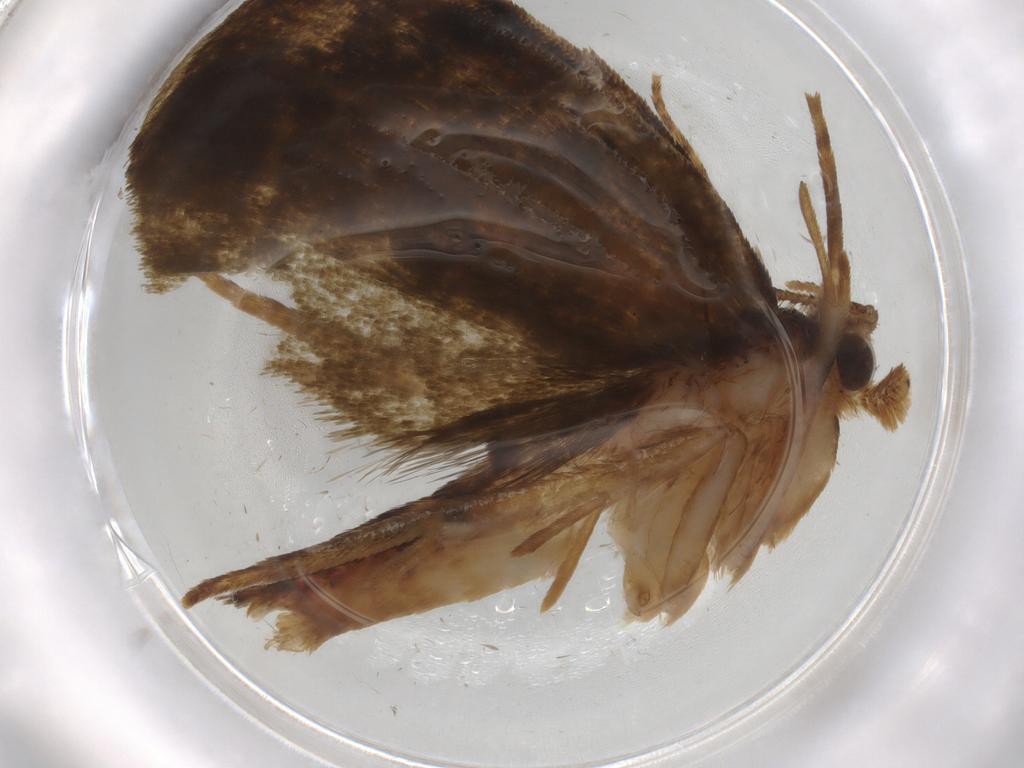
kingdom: Animalia
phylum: Arthropoda
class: Insecta
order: Lepidoptera
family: Geometridae
